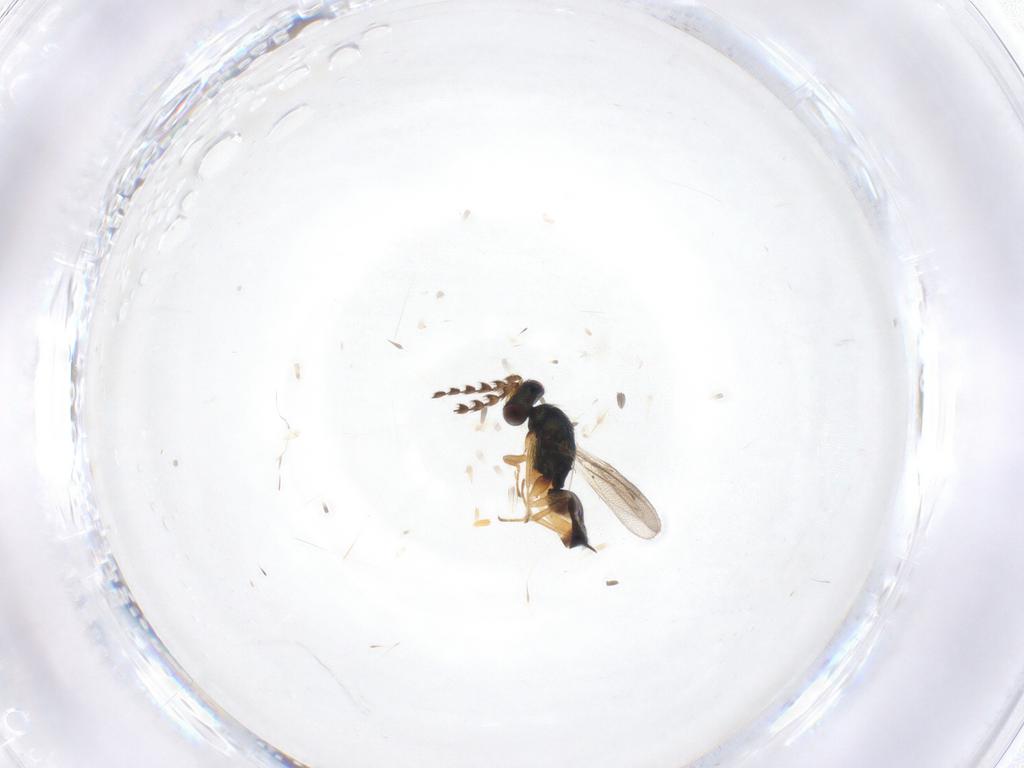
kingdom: Animalia
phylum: Arthropoda
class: Insecta
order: Hymenoptera
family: Eulophidae
